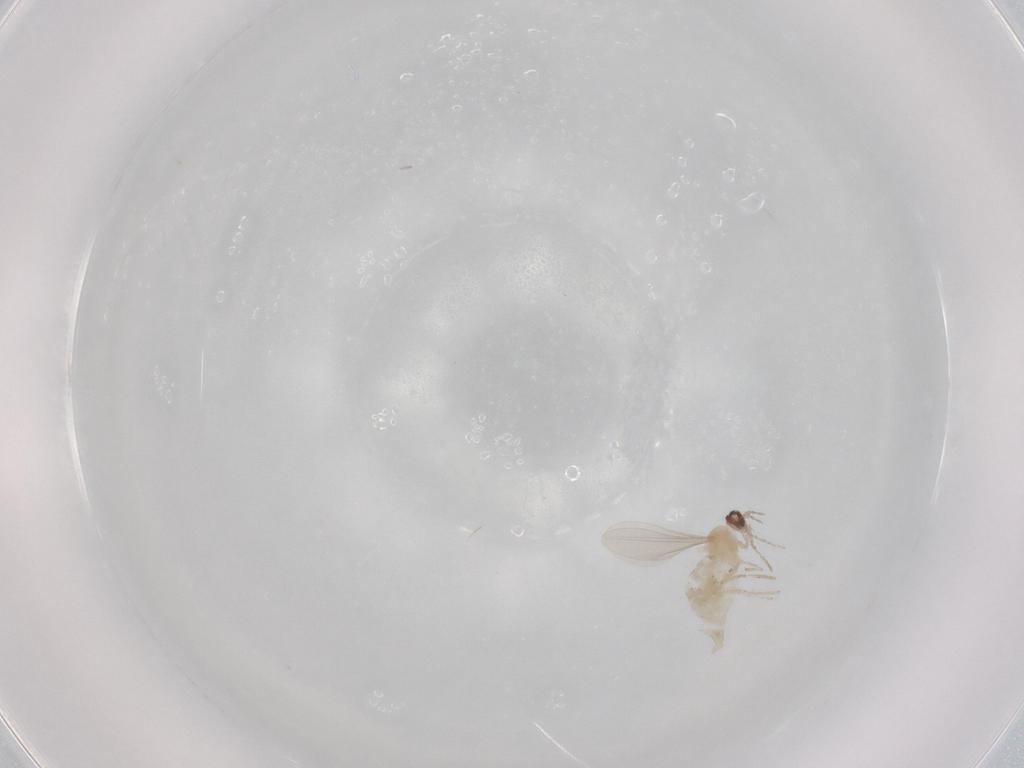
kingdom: Animalia
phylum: Arthropoda
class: Insecta
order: Diptera
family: Cecidomyiidae
